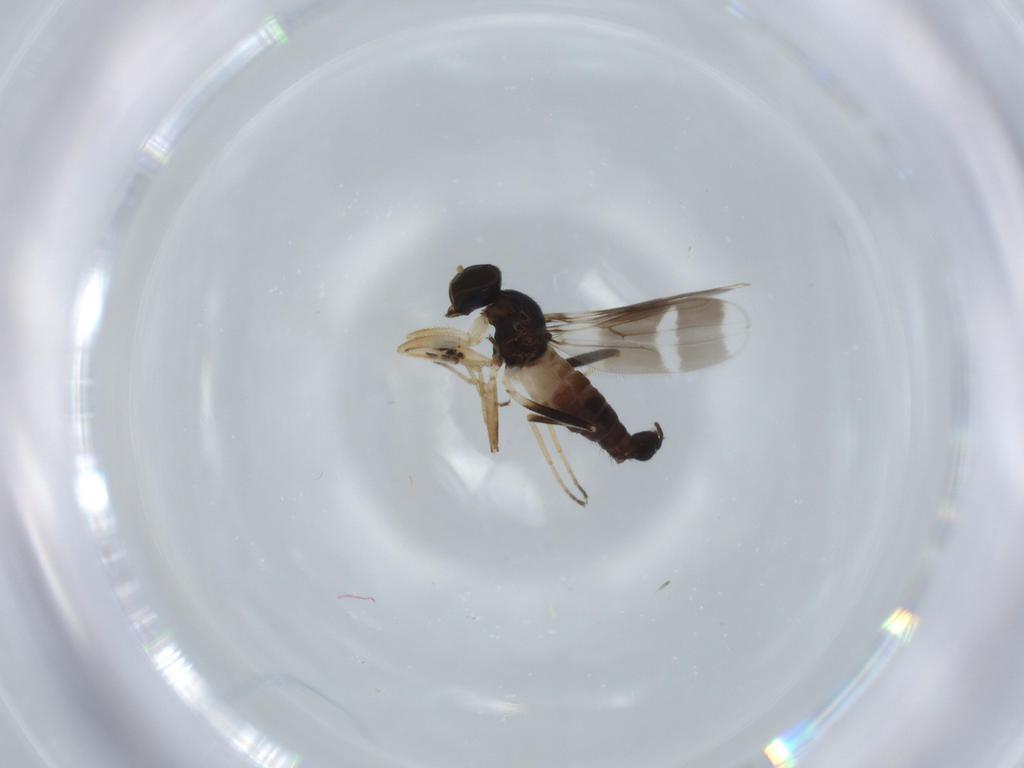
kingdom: Animalia
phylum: Arthropoda
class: Insecta
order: Diptera
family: Hybotidae
